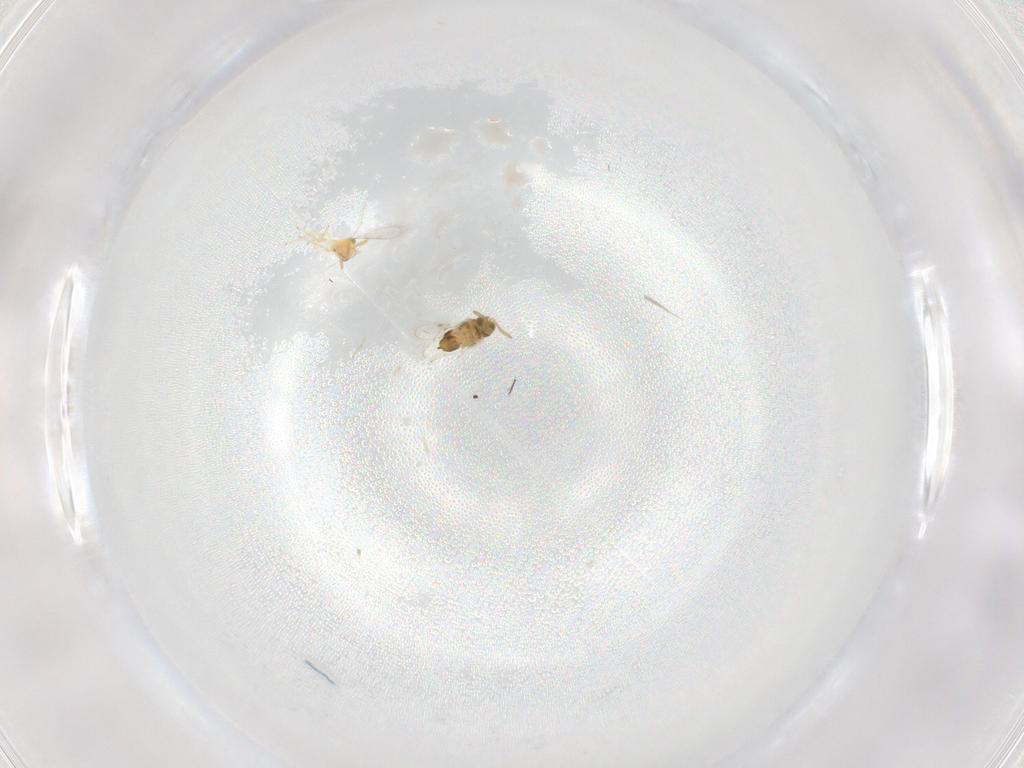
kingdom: Animalia
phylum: Arthropoda
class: Insecta
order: Hymenoptera
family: Aphelinidae
